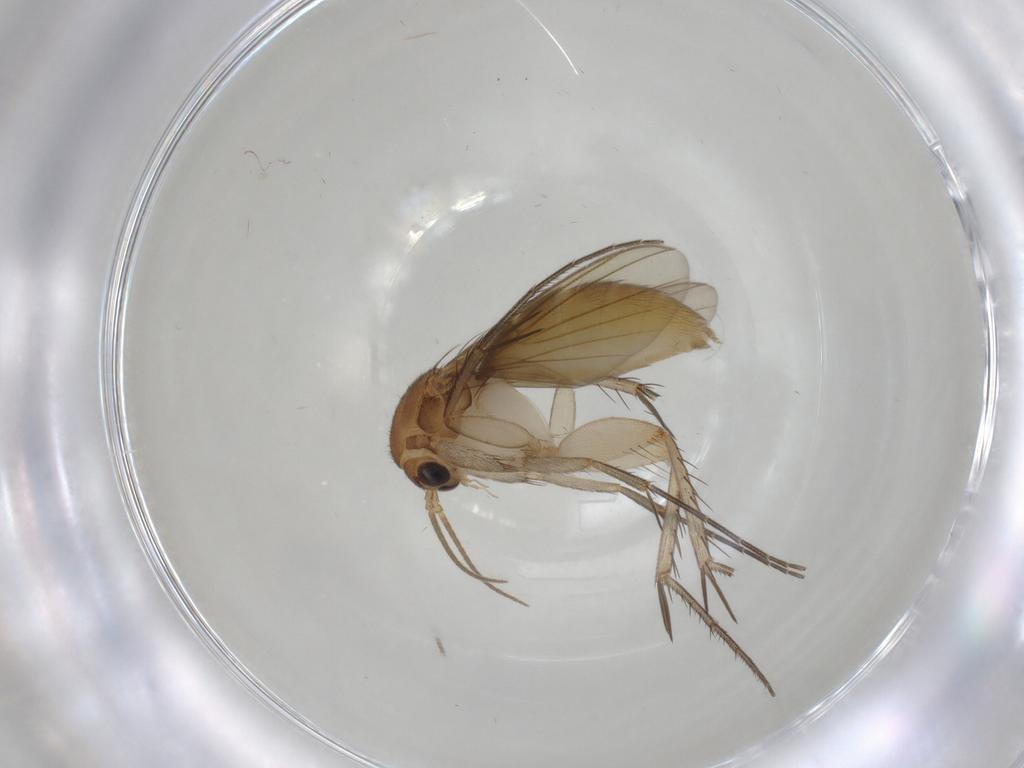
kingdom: Animalia
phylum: Arthropoda
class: Insecta
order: Diptera
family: Mycetophilidae
